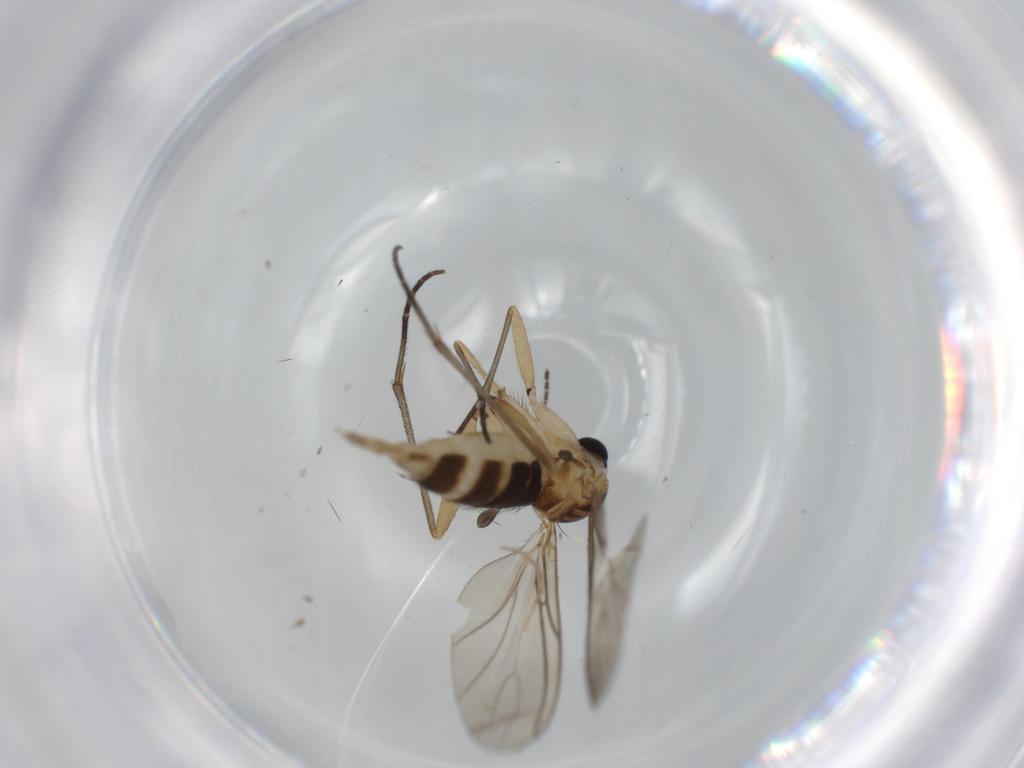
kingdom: Animalia
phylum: Arthropoda
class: Insecta
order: Diptera
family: Sciaridae
